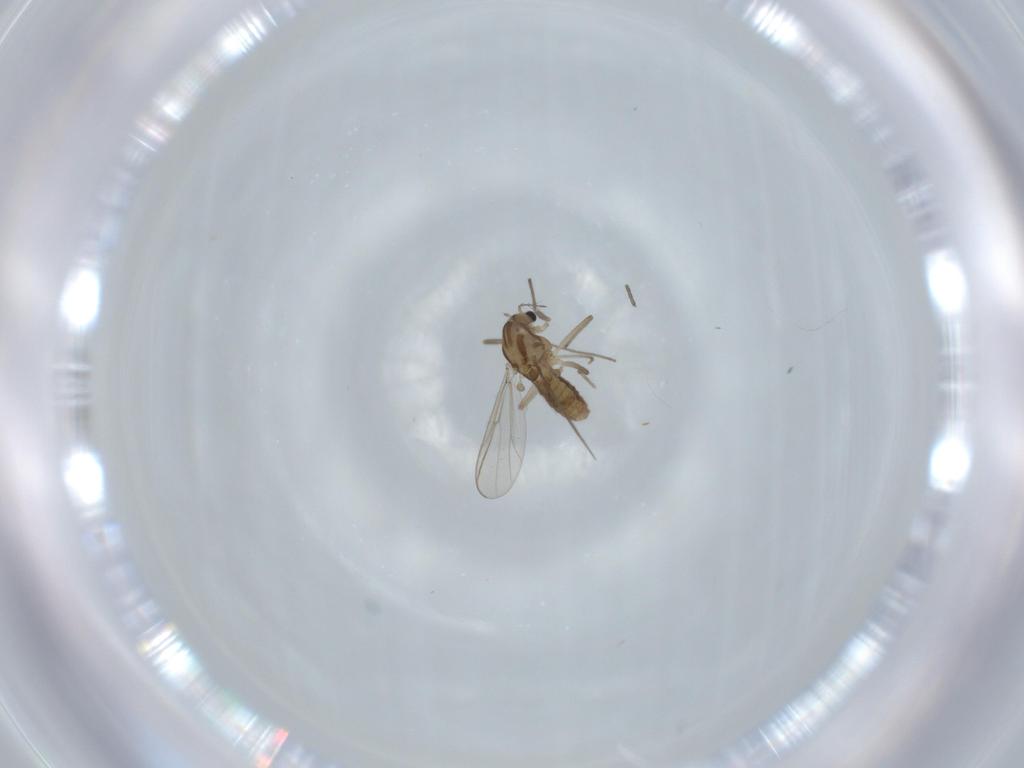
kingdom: Animalia
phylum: Arthropoda
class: Insecta
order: Diptera
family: Chironomidae
